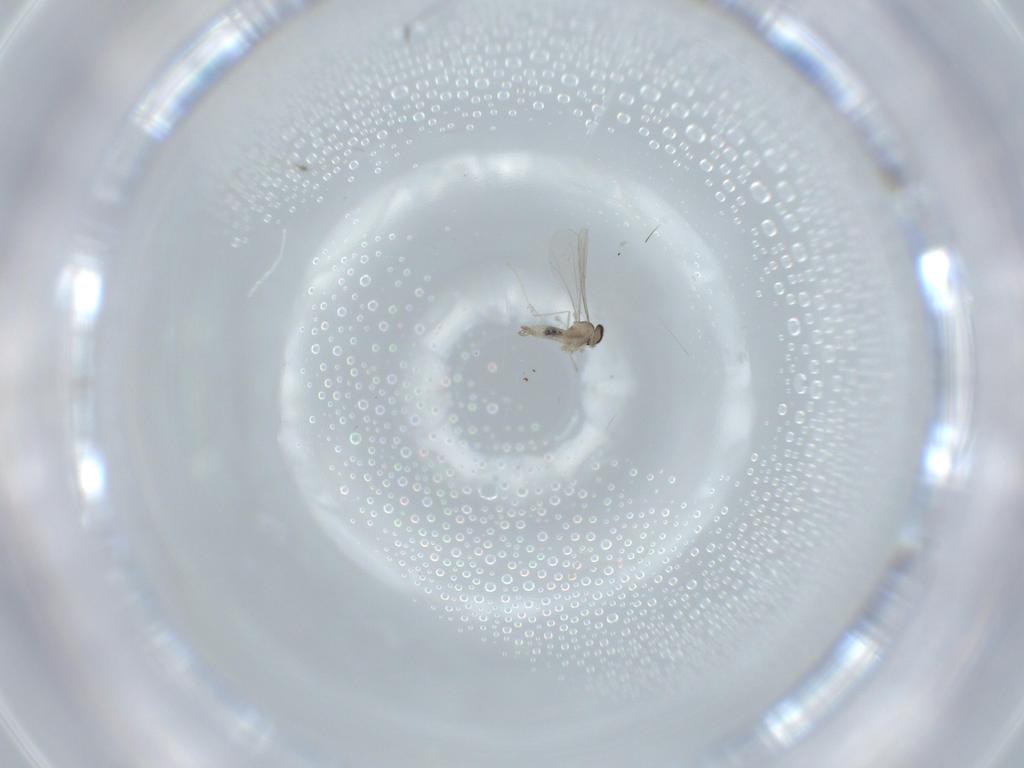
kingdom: Animalia
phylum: Arthropoda
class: Insecta
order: Diptera
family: Cecidomyiidae
